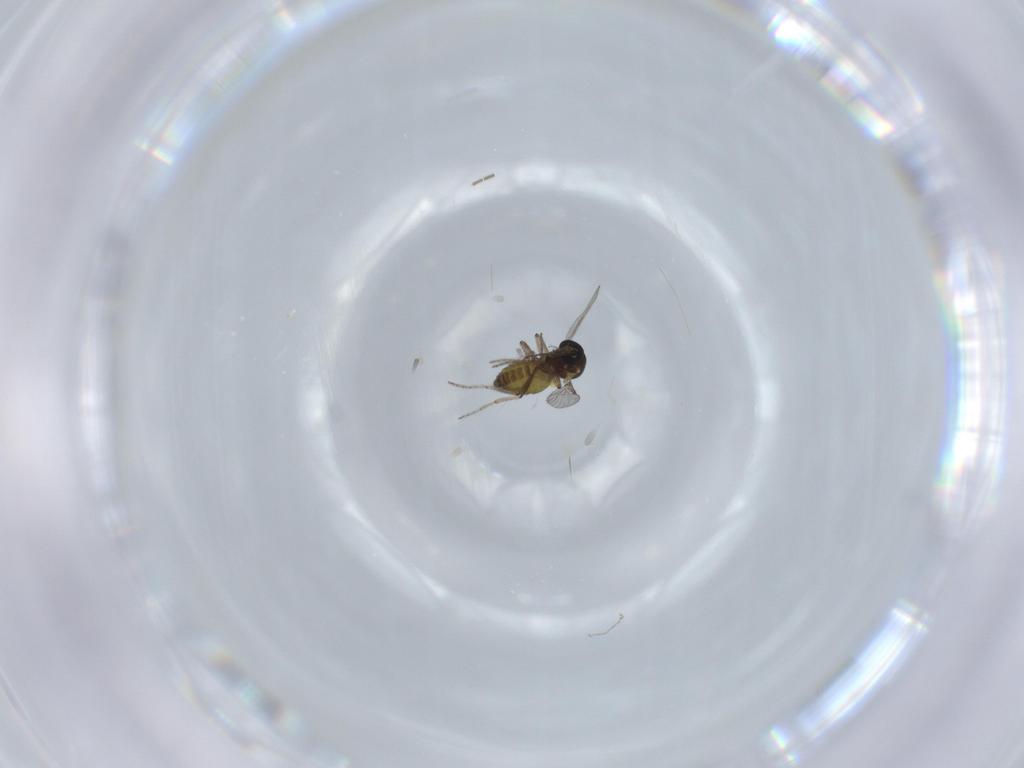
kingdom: Animalia
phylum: Arthropoda
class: Insecta
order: Diptera
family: Ceratopogonidae
